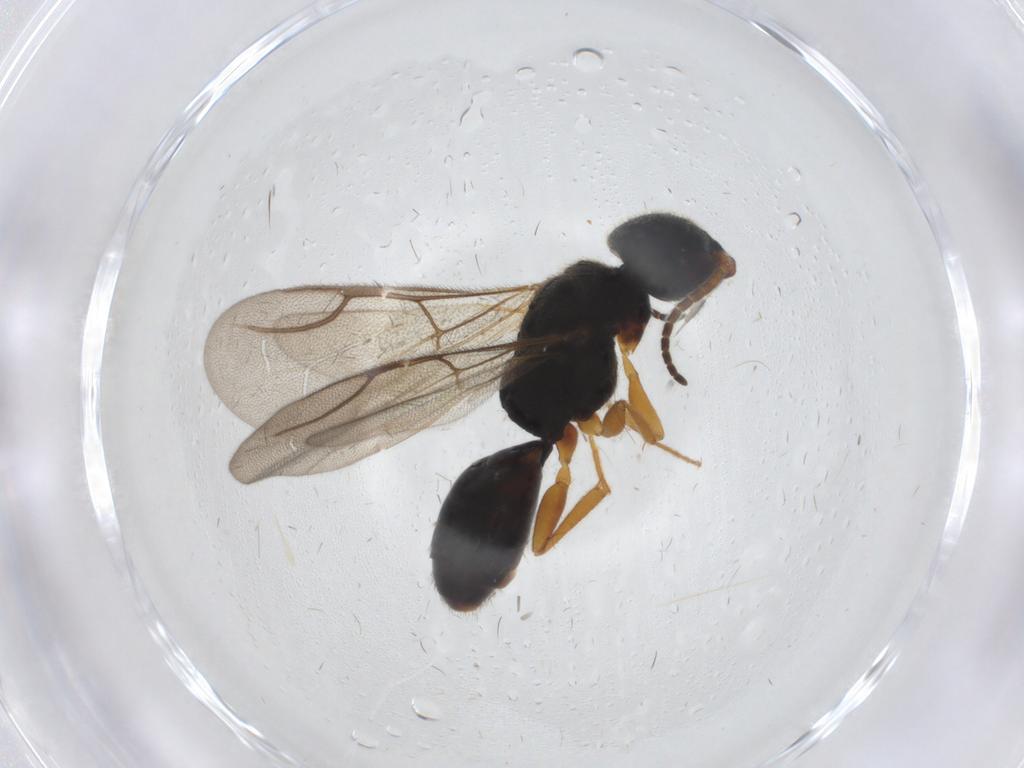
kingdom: Animalia
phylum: Arthropoda
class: Insecta
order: Hymenoptera
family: Bethylidae
